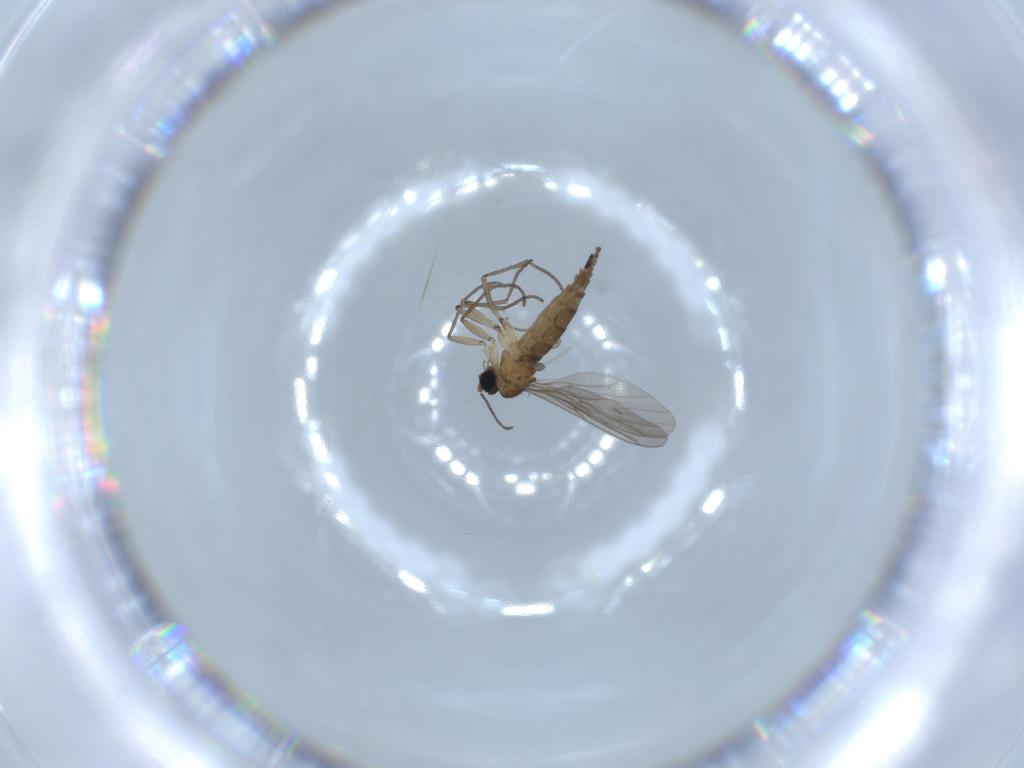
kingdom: Animalia
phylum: Arthropoda
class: Insecta
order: Diptera
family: Sciaridae
